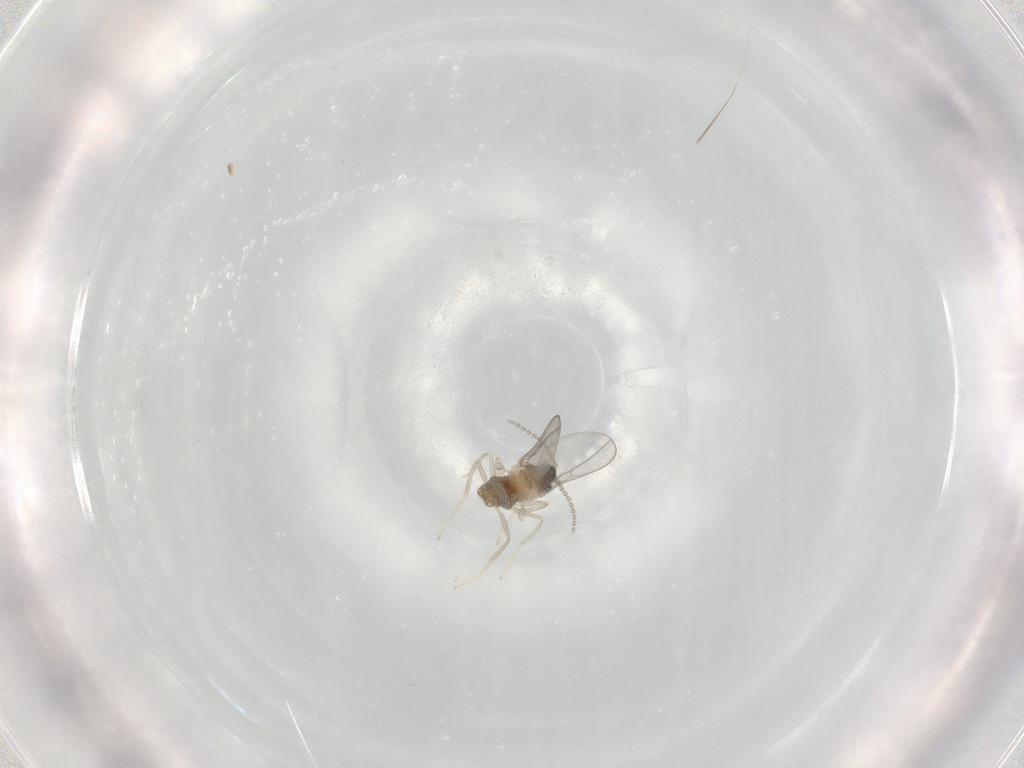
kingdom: Animalia
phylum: Arthropoda
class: Insecta
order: Diptera
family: Cecidomyiidae
